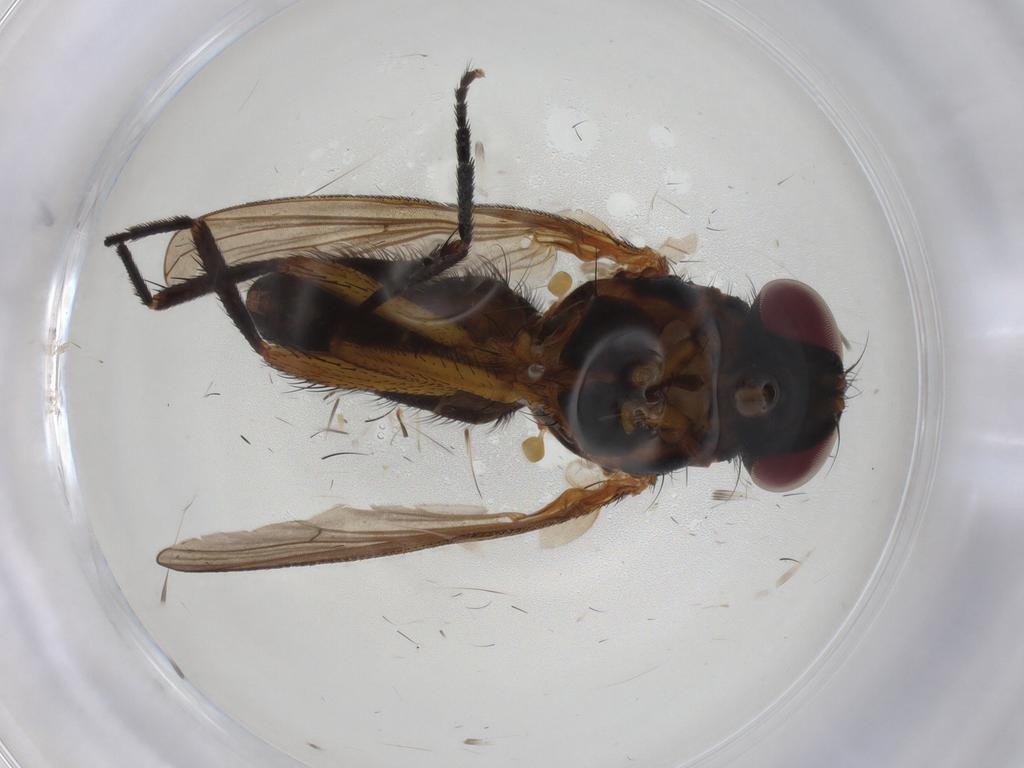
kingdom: Animalia
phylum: Arthropoda
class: Insecta
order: Diptera
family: Fanniidae
